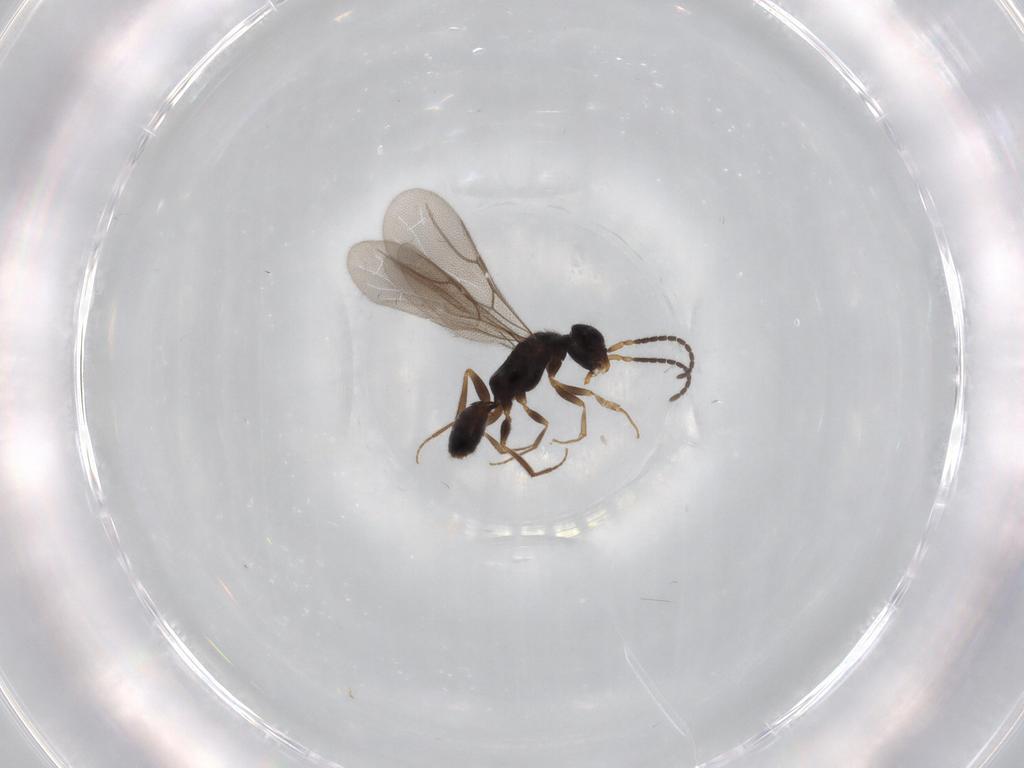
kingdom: Animalia
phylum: Arthropoda
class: Insecta
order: Hymenoptera
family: Bethylidae
